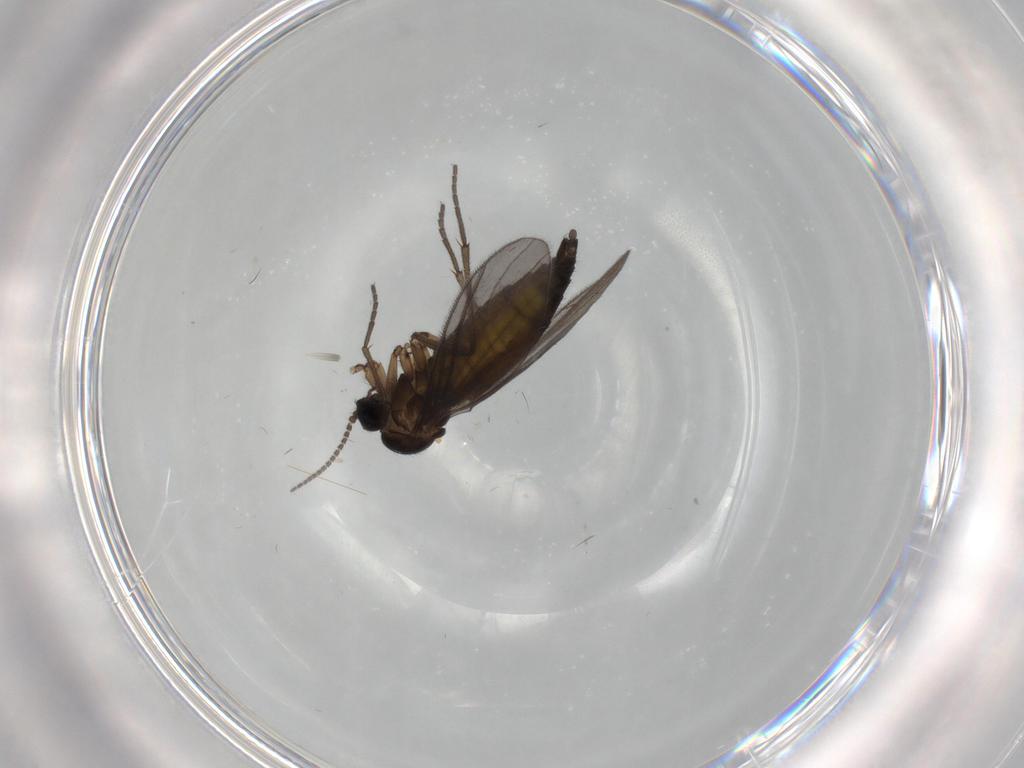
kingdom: Animalia
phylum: Arthropoda
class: Insecta
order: Diptera
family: Sciaridae
